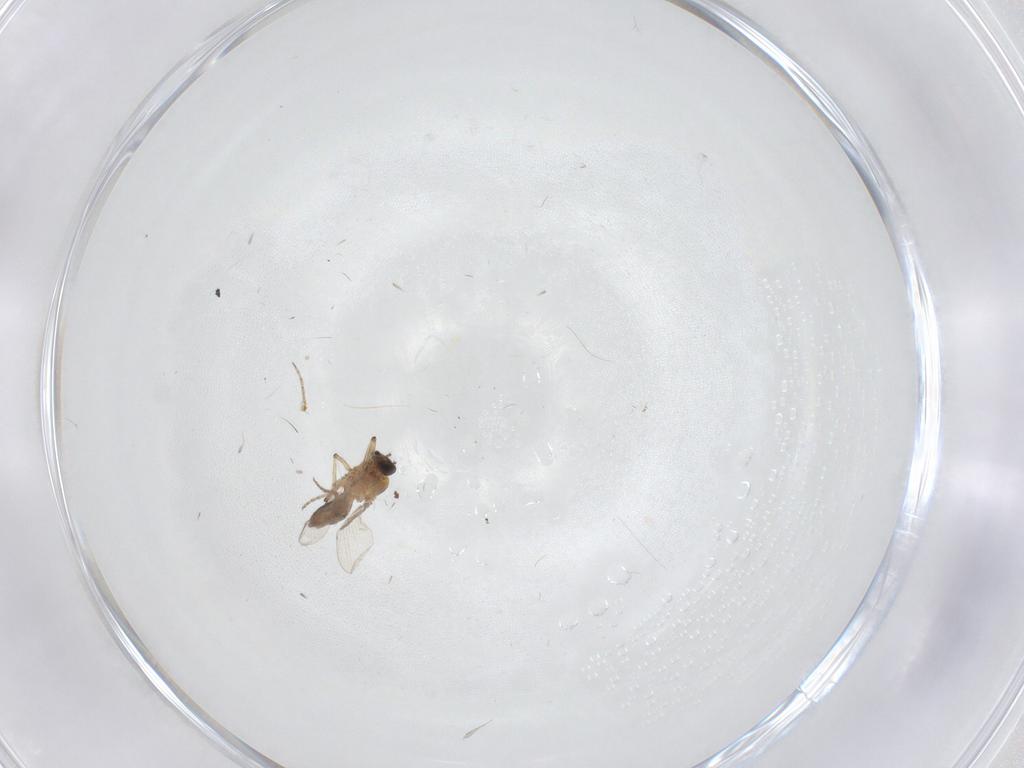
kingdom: Animalia
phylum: Arthropoda
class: Insecta
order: Diptera
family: Ceratopogonidae
